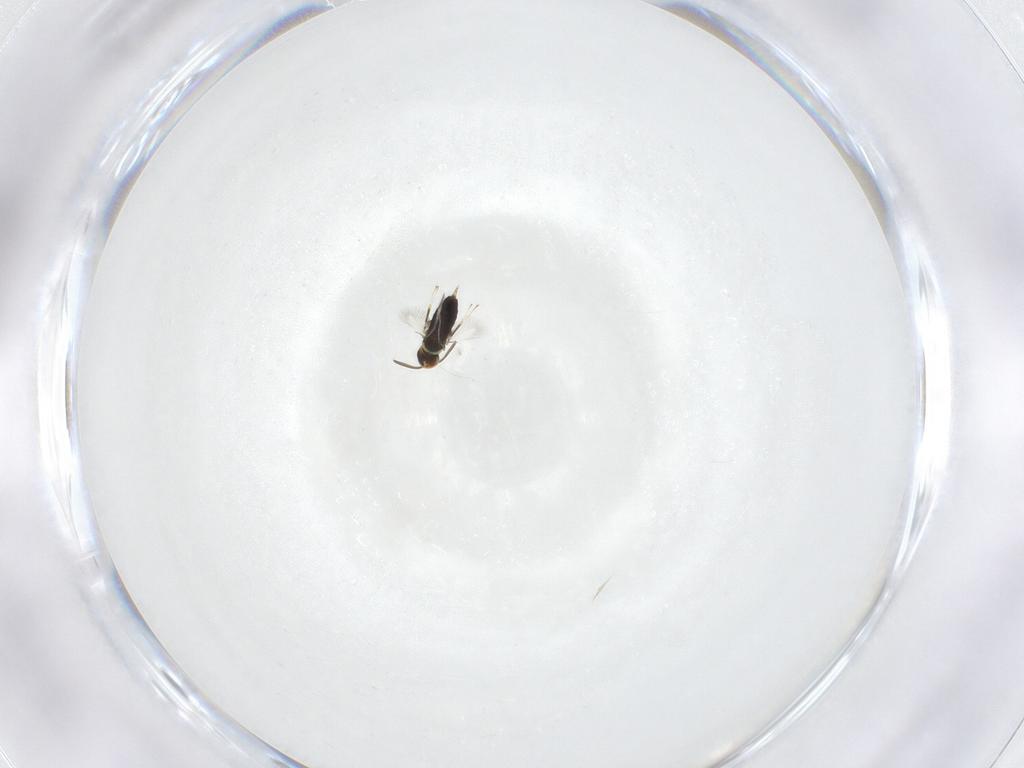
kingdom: Animalia
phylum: Arthropoda
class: Insecta
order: Hymenoptera
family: Signiphoridae
